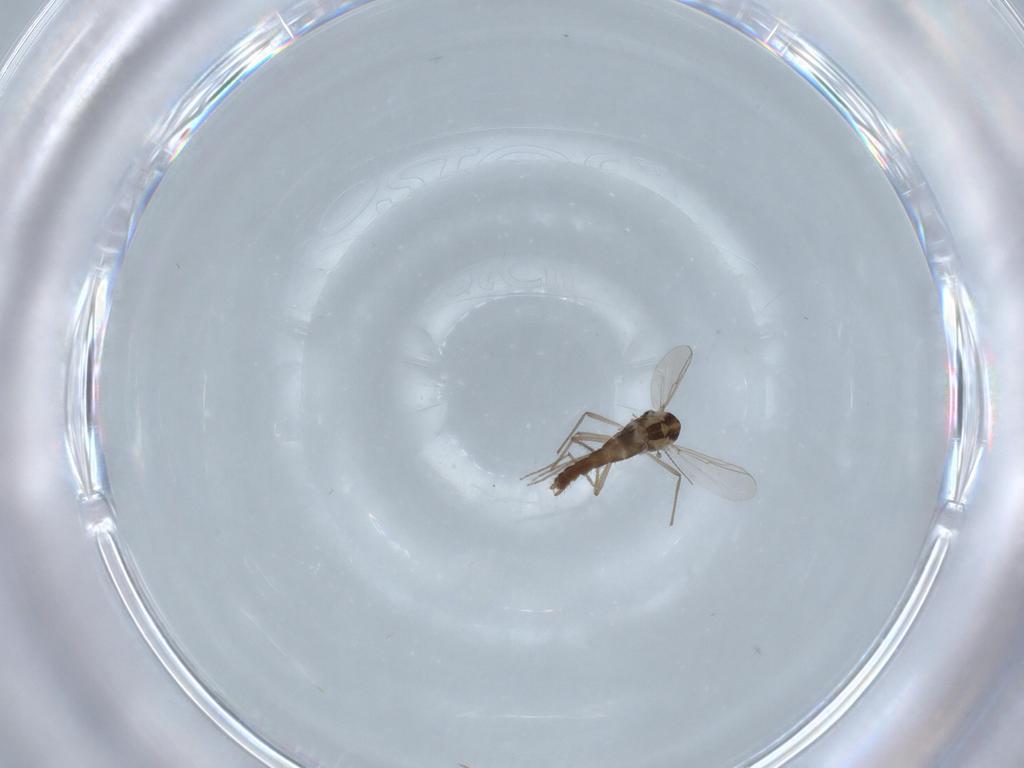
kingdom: Animalia
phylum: Arthropoda
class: Insecta
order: Diptera
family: Chironomidae
